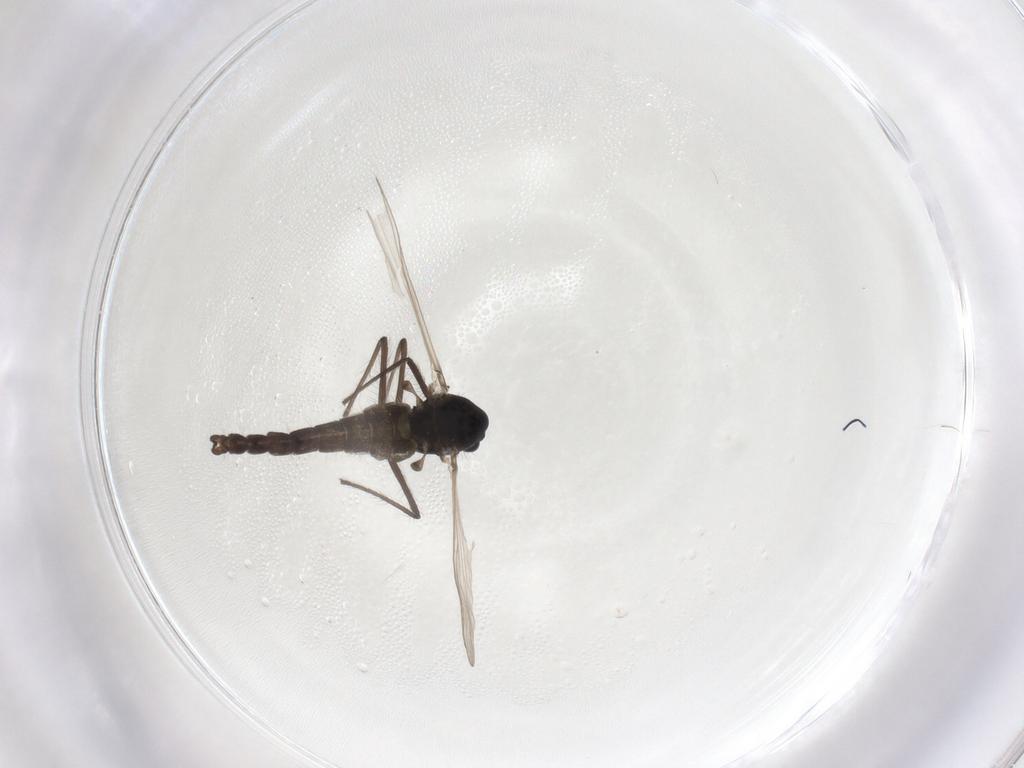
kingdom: Animalia
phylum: Arthropoda
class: Insecta
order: Diptera
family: Chironomidae
